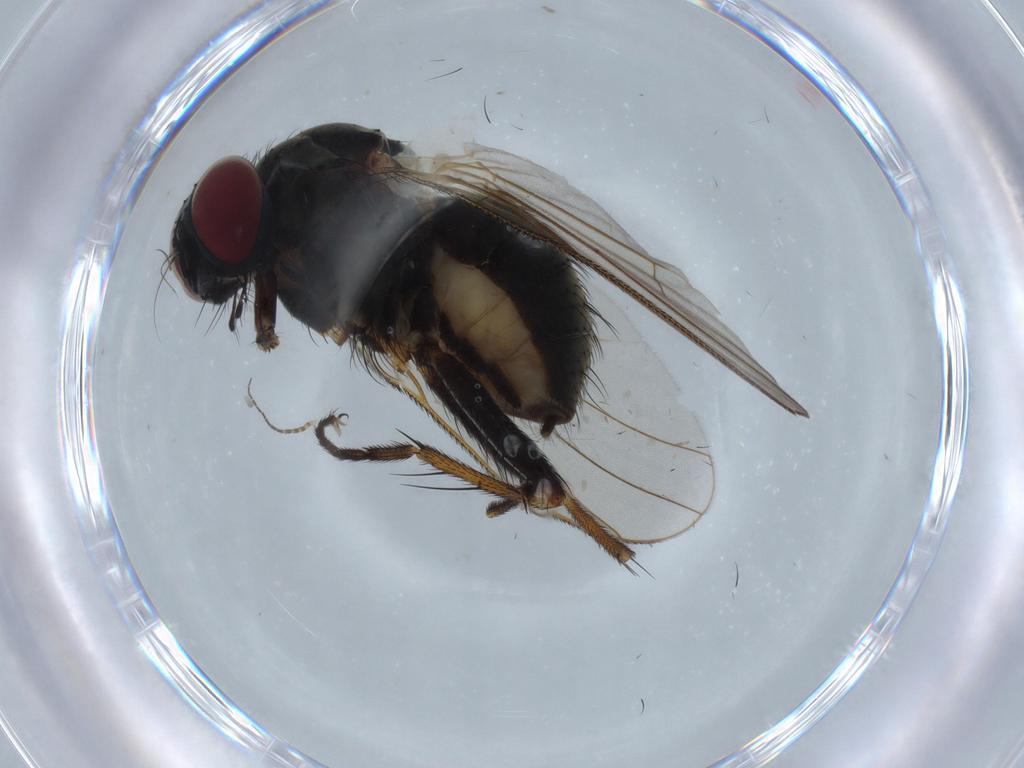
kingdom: Animalia
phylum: Arthropoda
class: Insecta
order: Diptera
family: Muscidae
